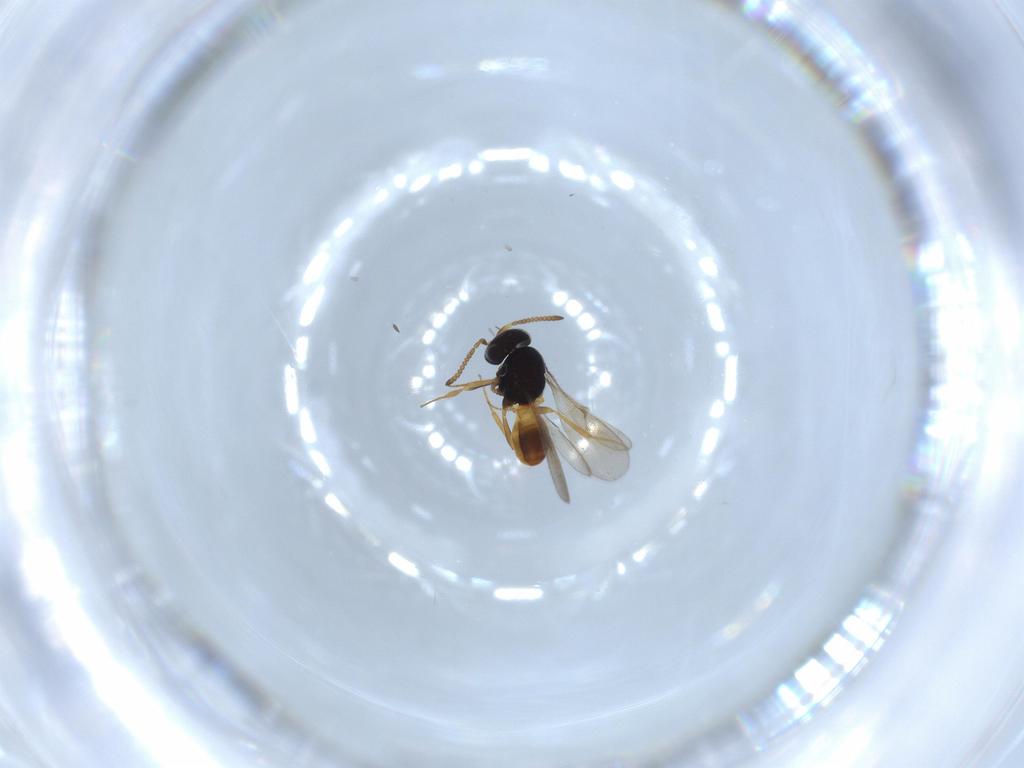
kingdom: Animalia
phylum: Arthropoda
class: Insecta
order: Hymenoptera
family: Scelionidae
